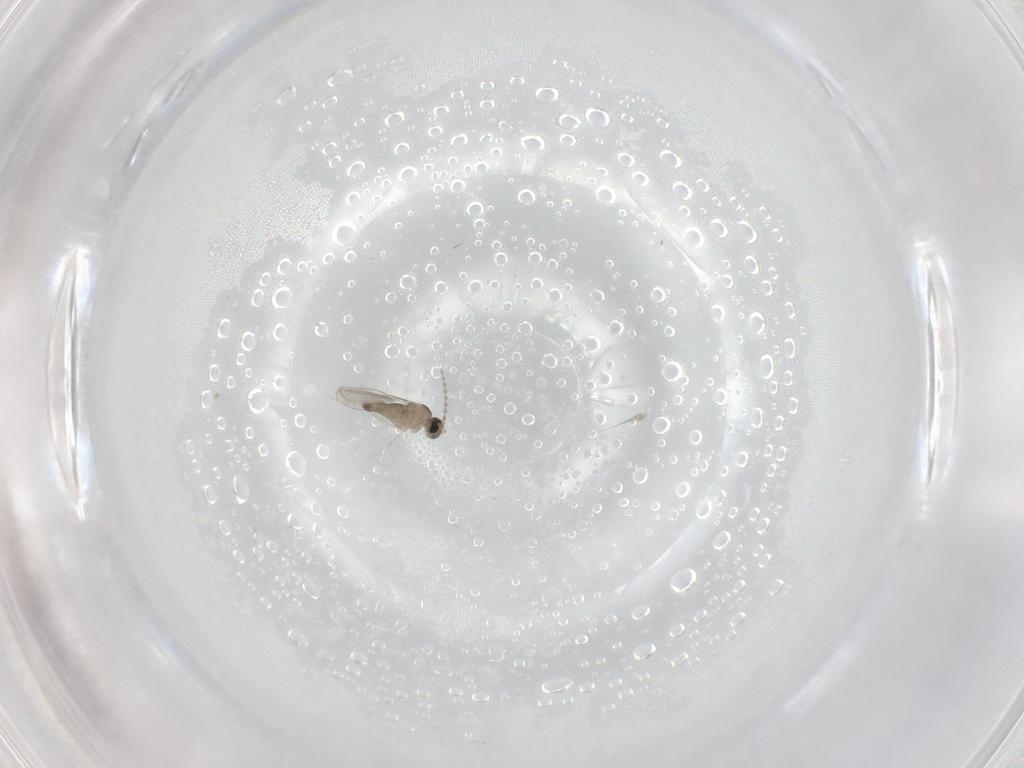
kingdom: Animalia
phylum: Arthropoda
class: Insecta
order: Diptera
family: Cecidomyiidae
